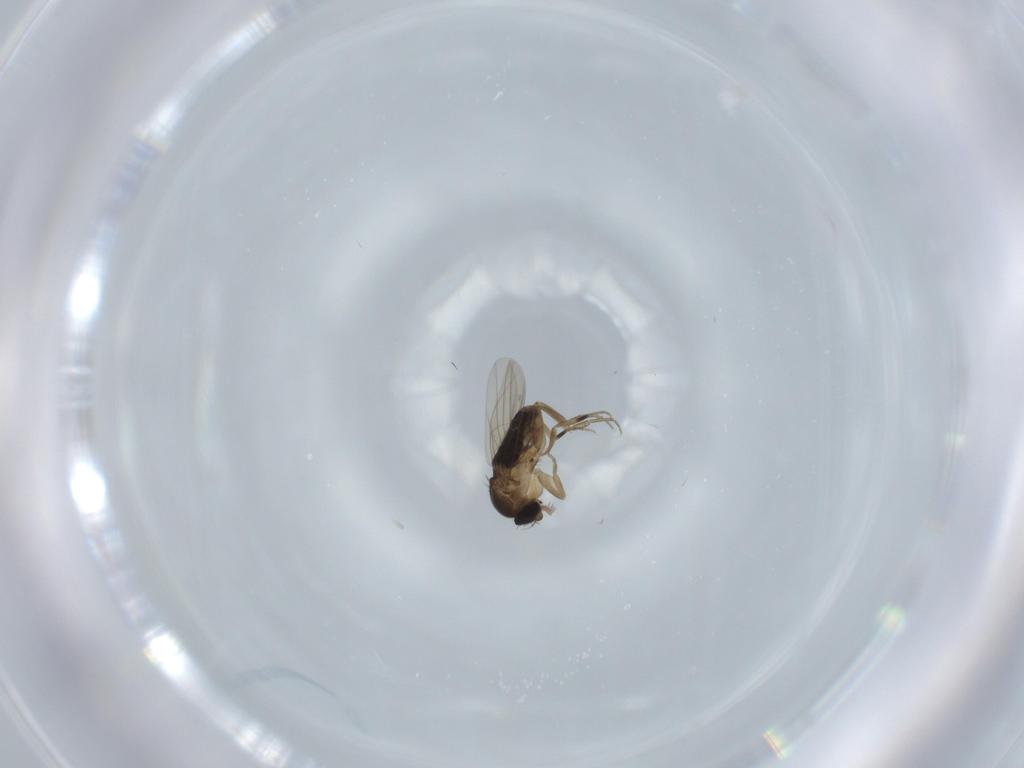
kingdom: Animalia
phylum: Arthropoda
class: Insecta
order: Diptera
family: Phoridae
